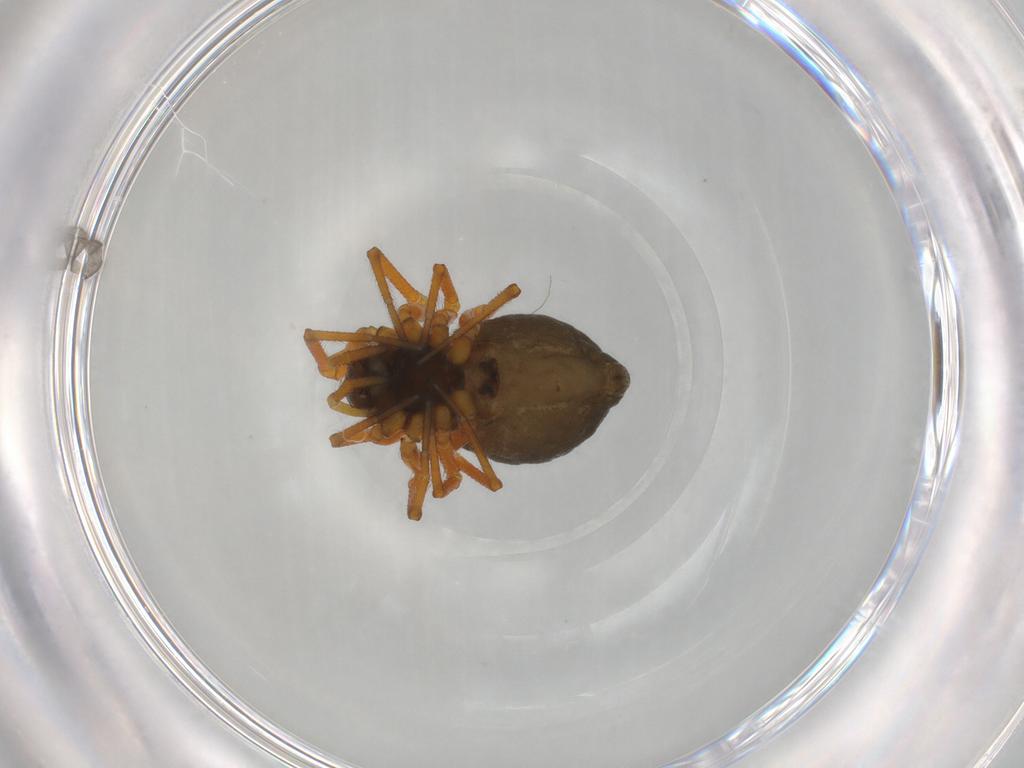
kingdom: Animalia
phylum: Arthropoda
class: Arachnida
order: Araneae
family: Linyphiidae
